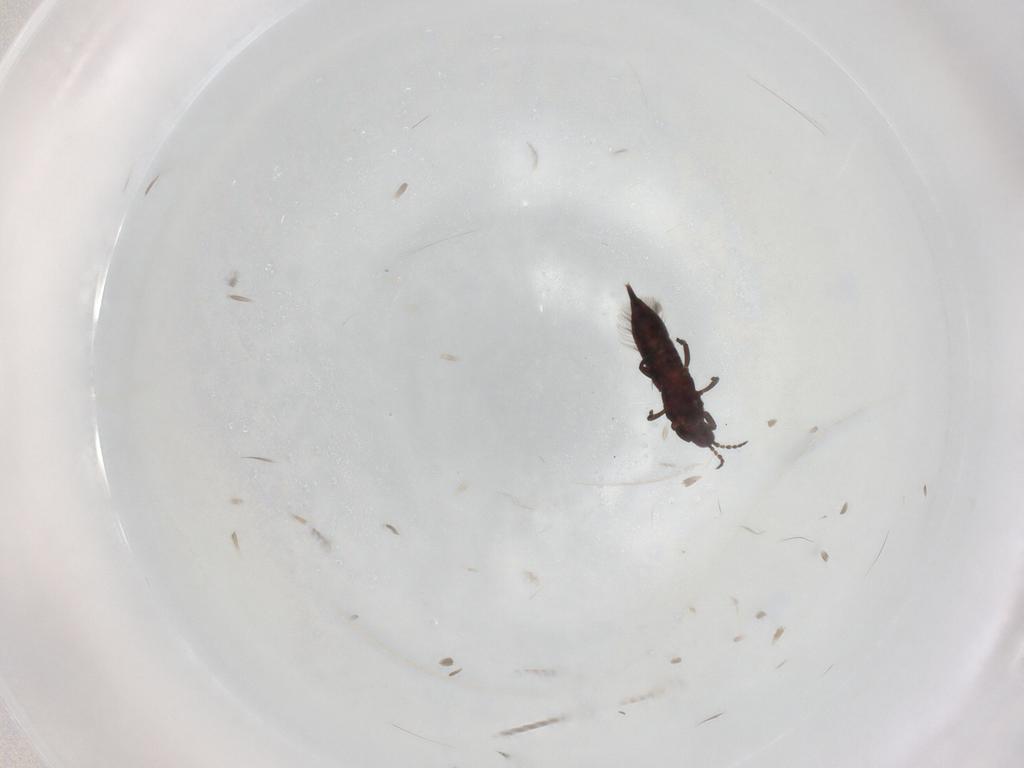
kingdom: Animalia
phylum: Arthropoda
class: Insecta
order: Thysanoptera
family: Phlaeothripidae
